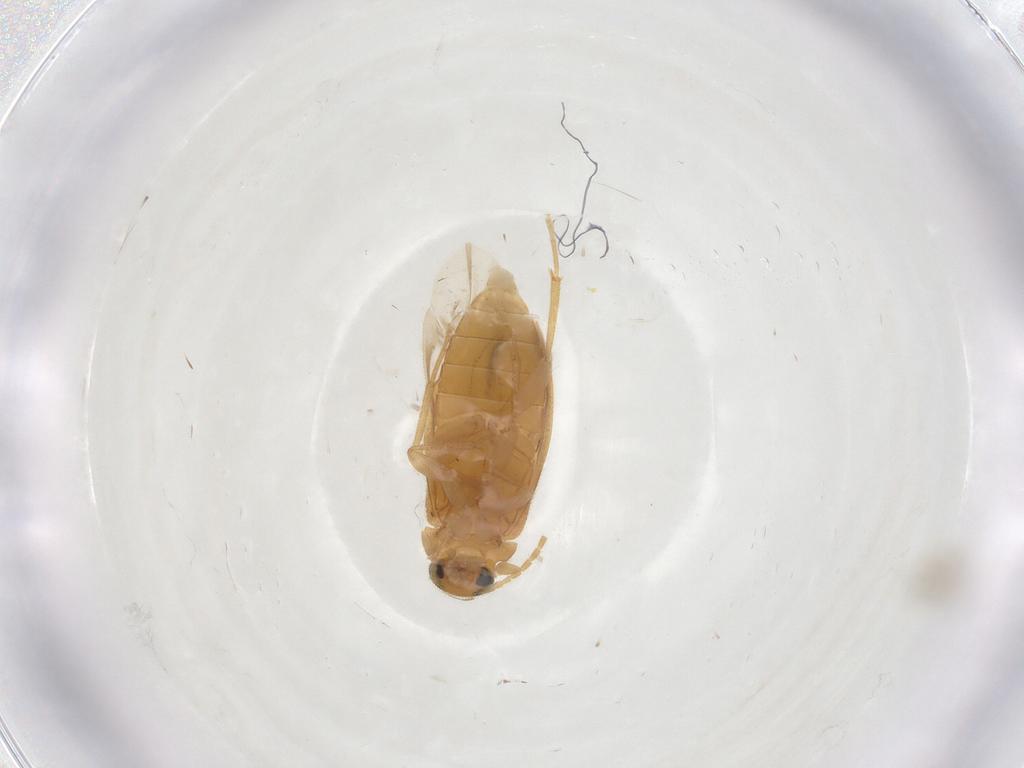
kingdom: Animalia
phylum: Arthropoda
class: Insecta
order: Coleoptera
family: Scraptiidae
